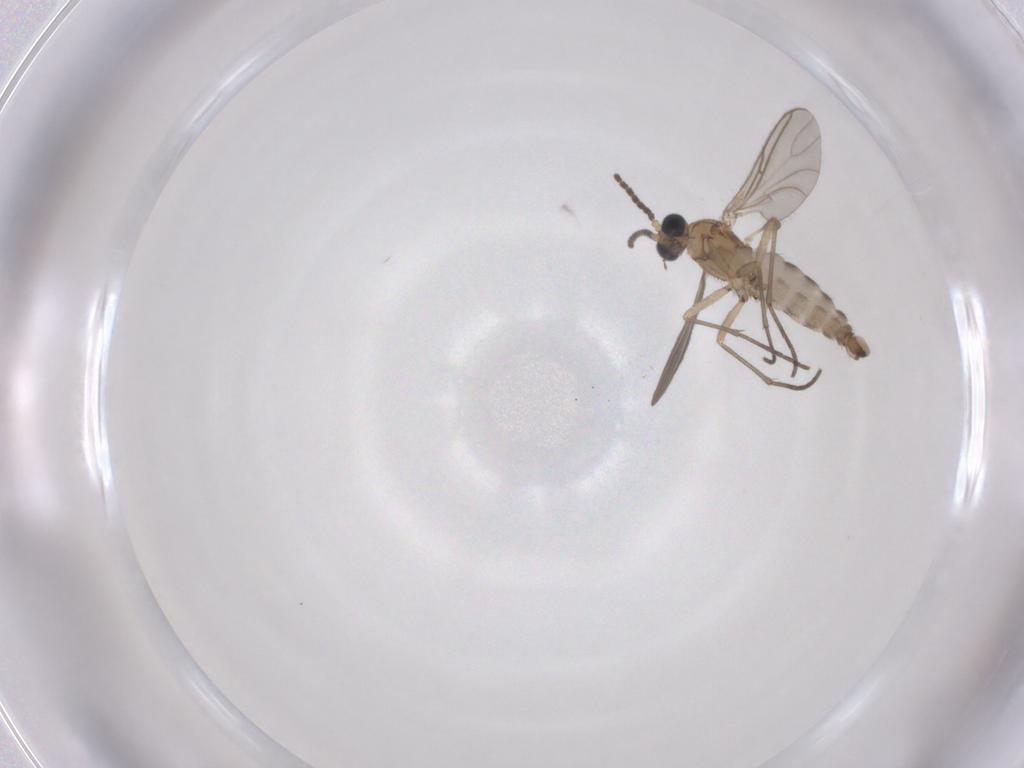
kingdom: Animalia
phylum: Arthropoda
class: Insecta
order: Diptera
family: Sciaridae
